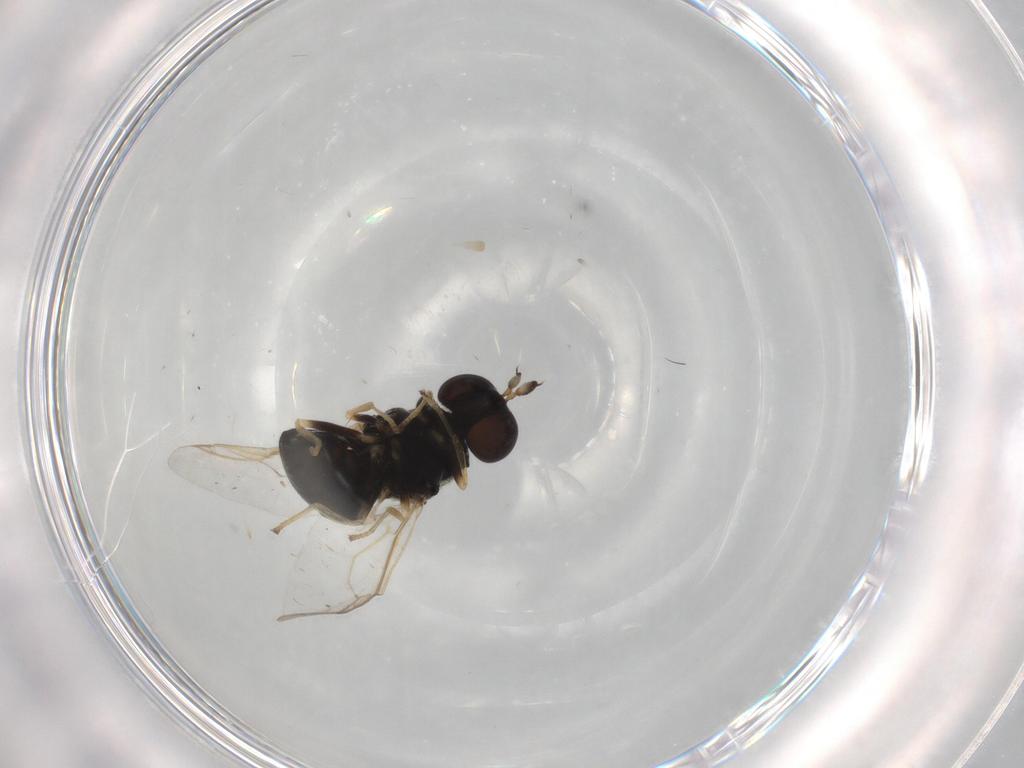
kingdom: Animalia
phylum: Arthropoda
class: Insecta
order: Diptera
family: Stratiomyidae
